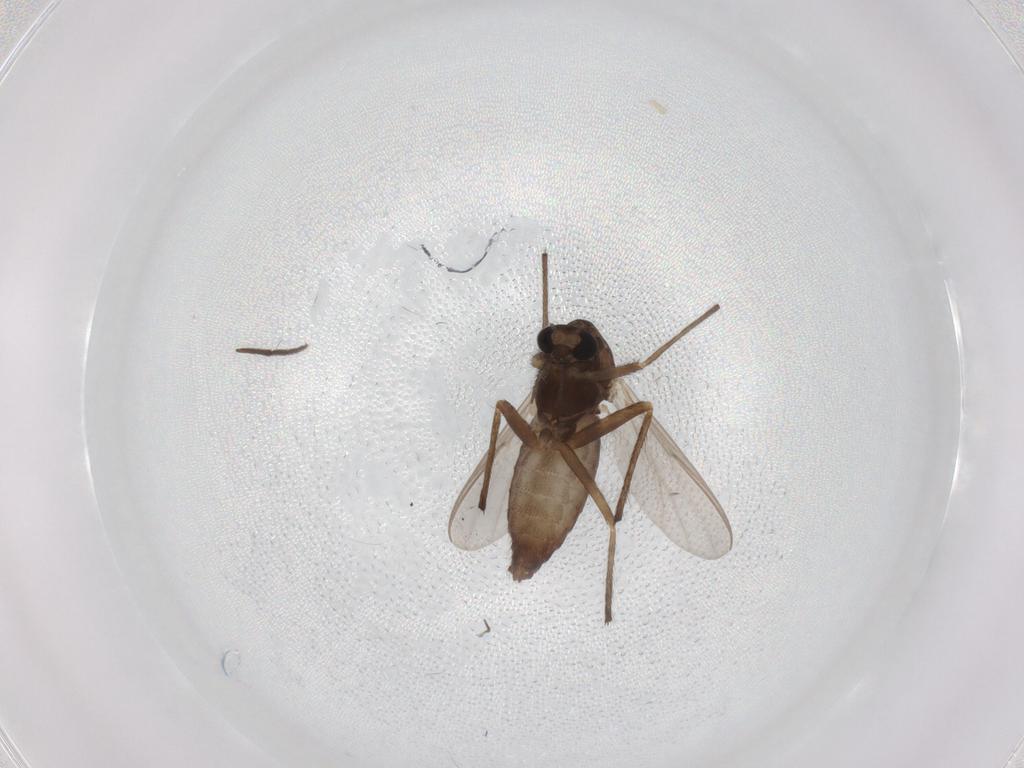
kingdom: Animalia
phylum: Arthropoda
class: Insecta
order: Diptera
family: Chironomidae
